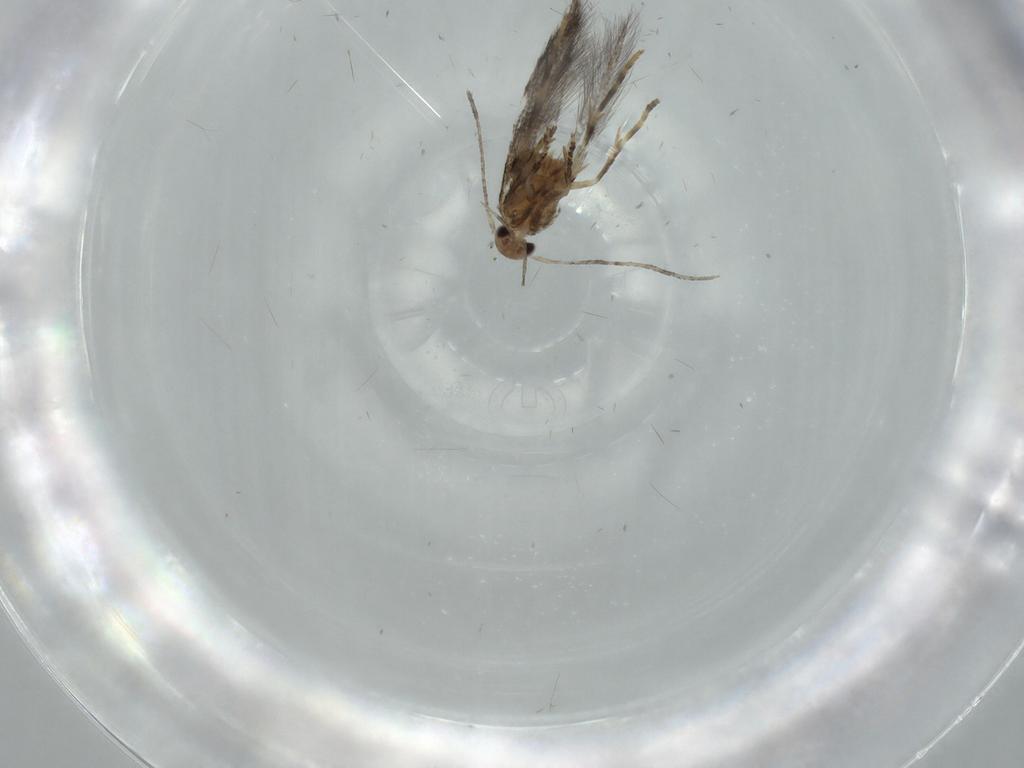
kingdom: Animalia
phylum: Arthropoda
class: Insecta
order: Lepidoptera
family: Elachistidae
